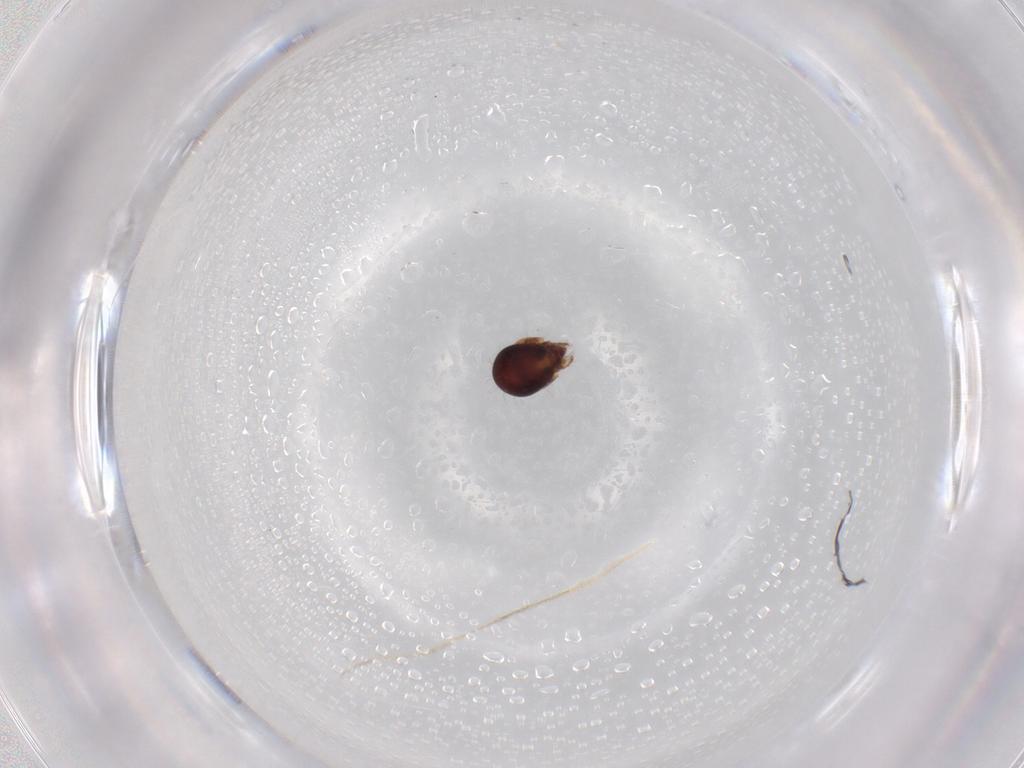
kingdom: Animalia
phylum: Arthropoda
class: Arachnida
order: Sarcoptiformes
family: Humerobatidae
